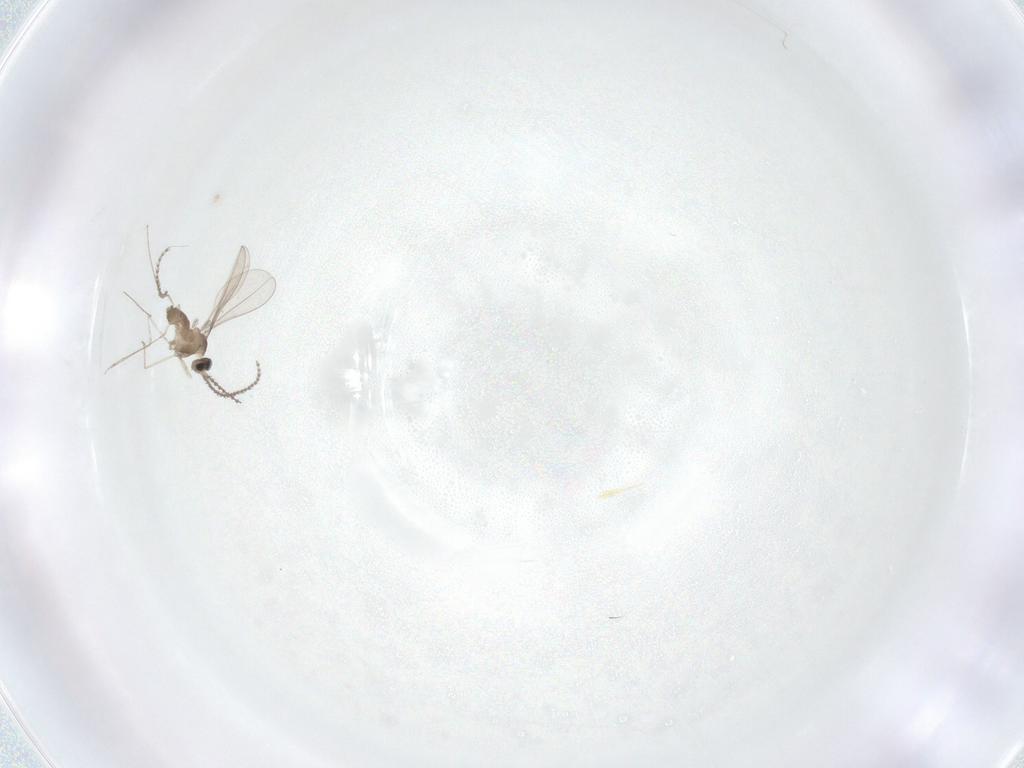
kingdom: Animalia
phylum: Arthropoda
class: Insecta
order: Diptera
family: Cecidomyiidae
